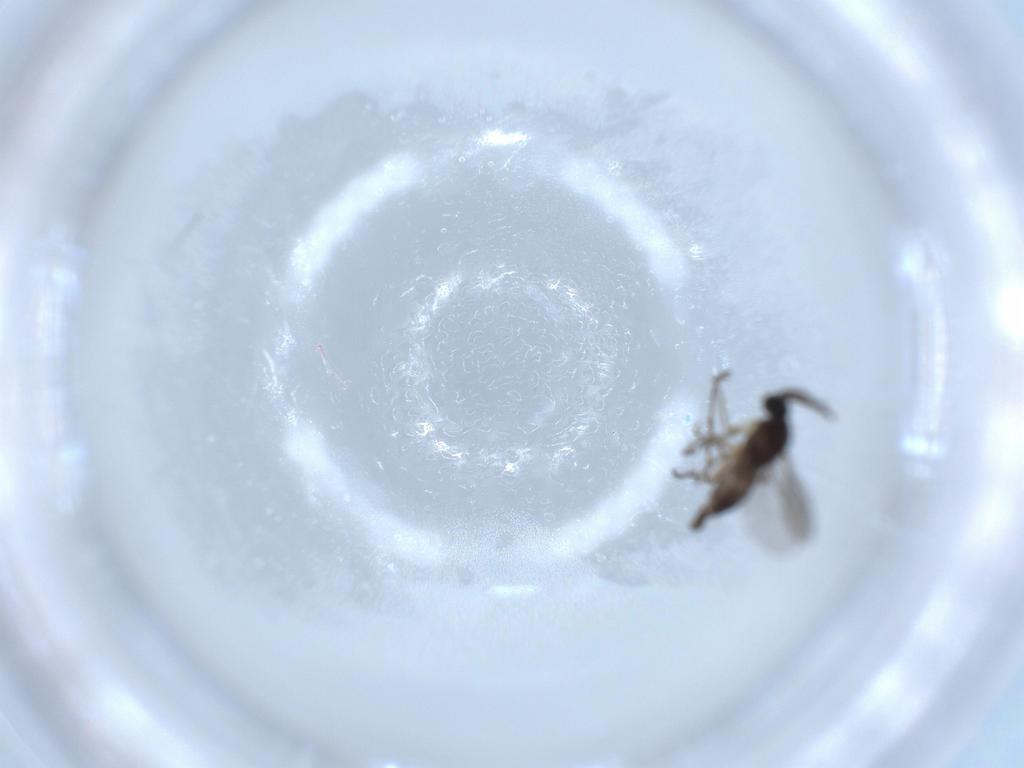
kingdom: Animalia
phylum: Arthropoda
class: Insecta
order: Diptera
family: Sciaridae
